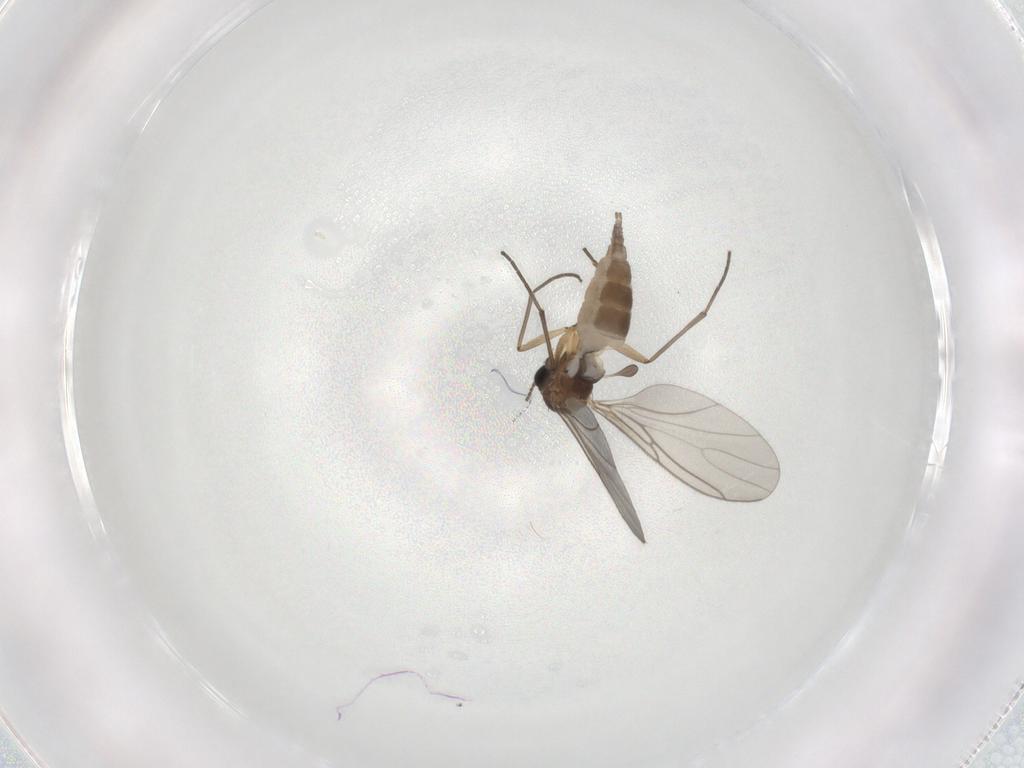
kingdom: Animalia
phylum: Arthropoda
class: Insecta
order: Diptera
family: Sciaridae
